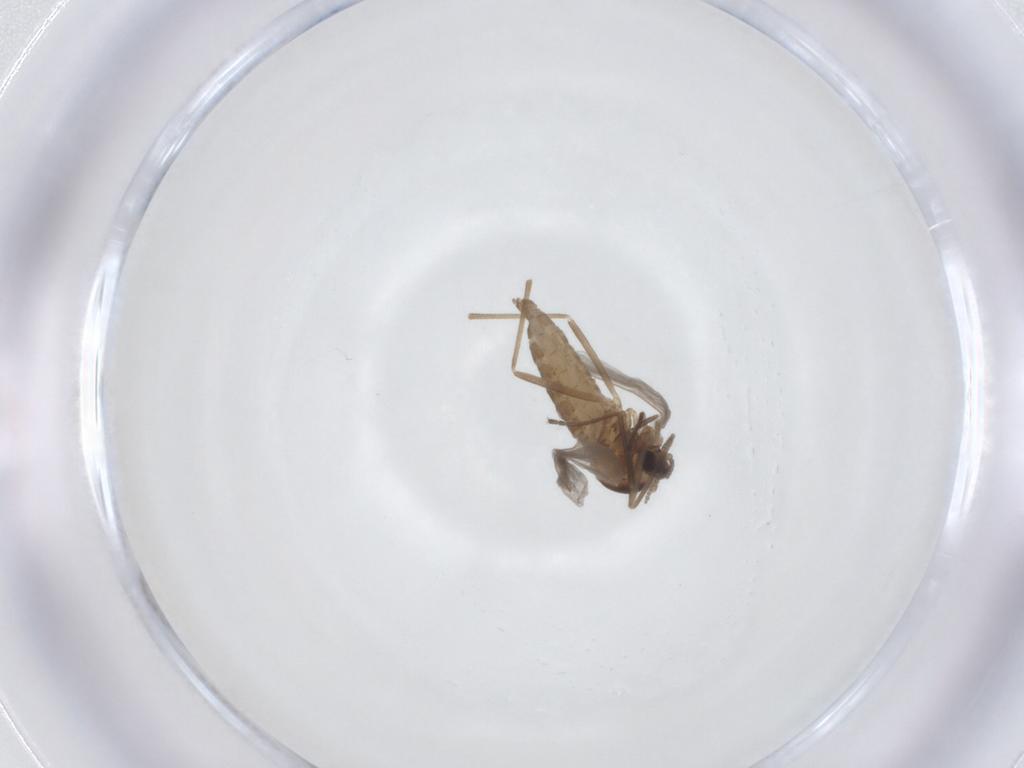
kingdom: Animalia
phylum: Arthropoda
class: Insecta
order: Diptera
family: Cecidomyiidae
